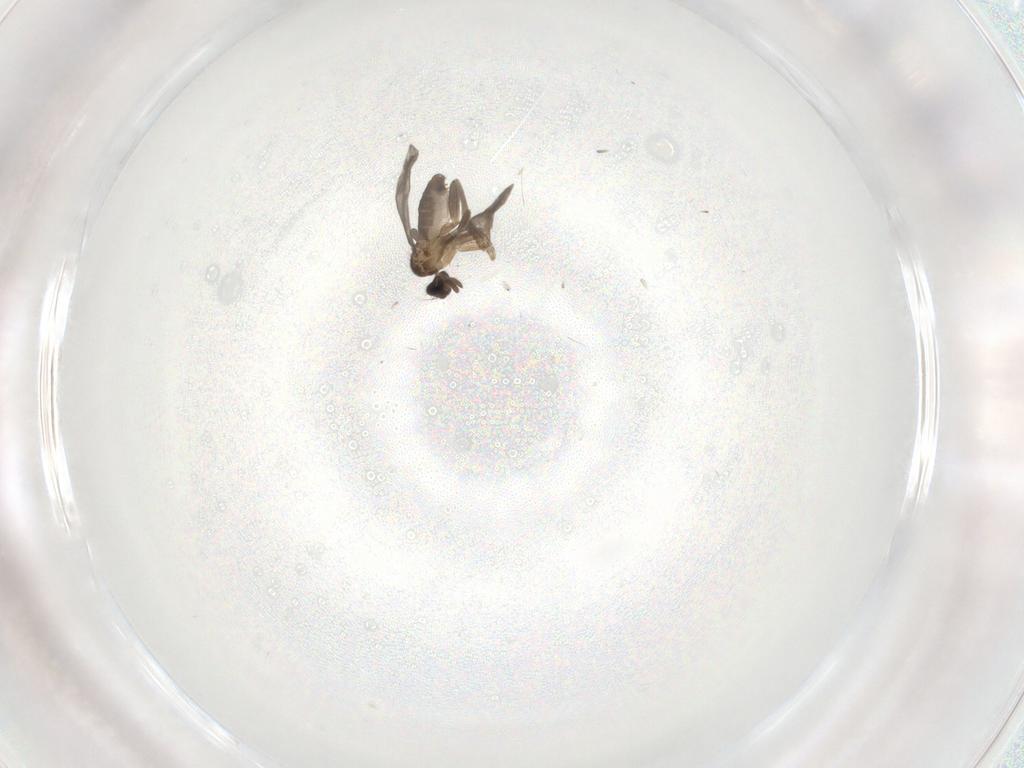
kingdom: Animalia
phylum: Arthropoda
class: Insecta
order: Diptera
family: Phoridae
